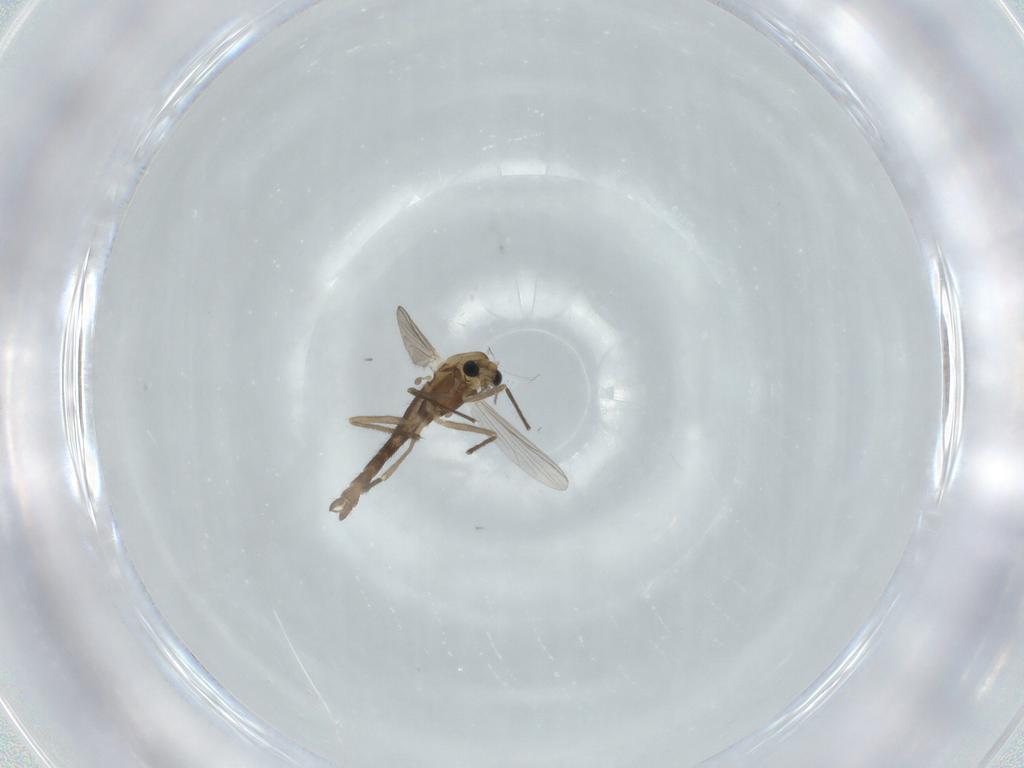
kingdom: Animalia
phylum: Arthropoda
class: Insecta
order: Diptera
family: Chironomidae
